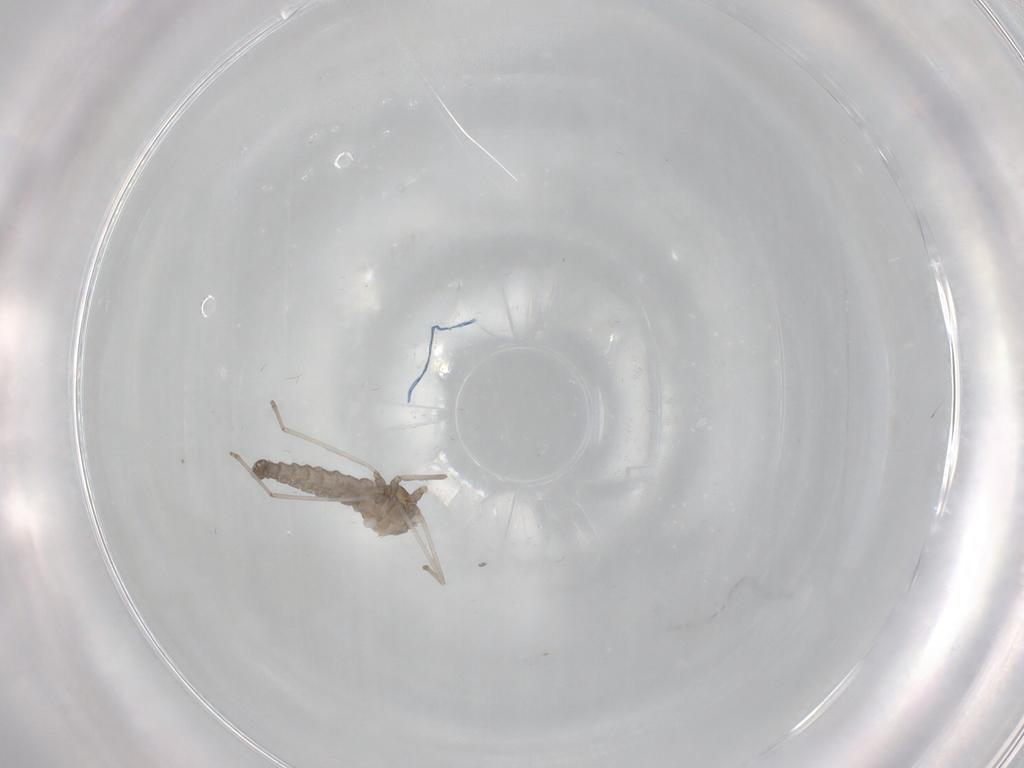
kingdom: Animalia
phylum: Arthropoda
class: Insecta
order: Diptera
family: Cecidomyiidae
